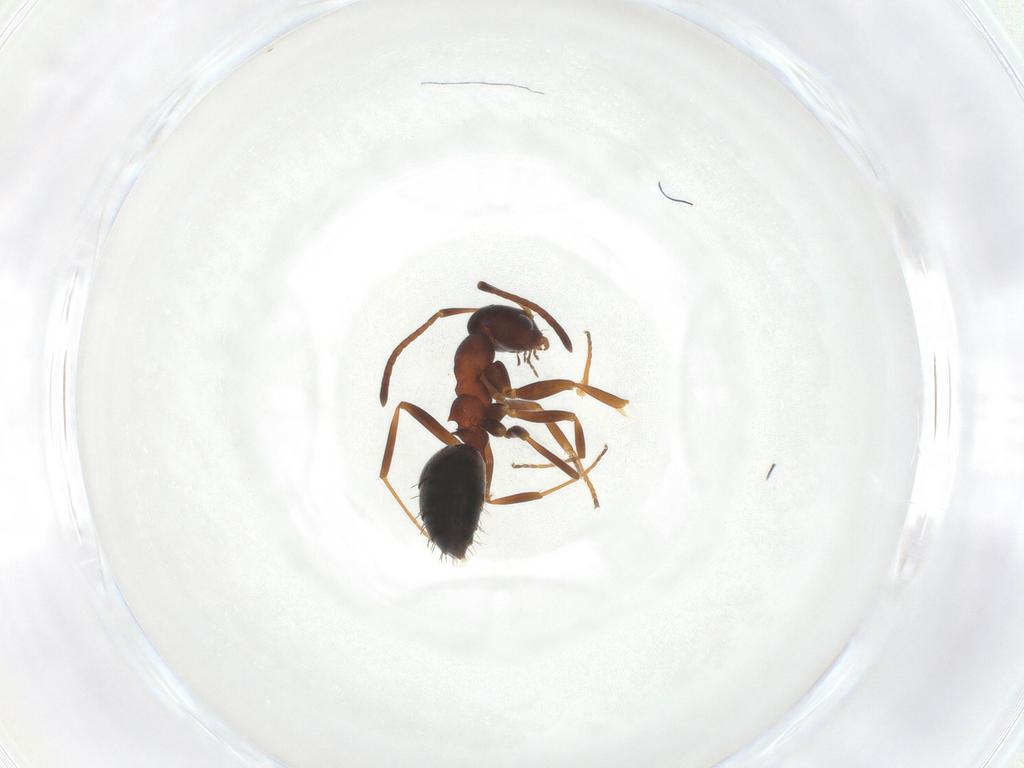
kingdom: Animalia
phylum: Arthropoda
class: Insecta
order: Hymenoptera
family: Formicidae
